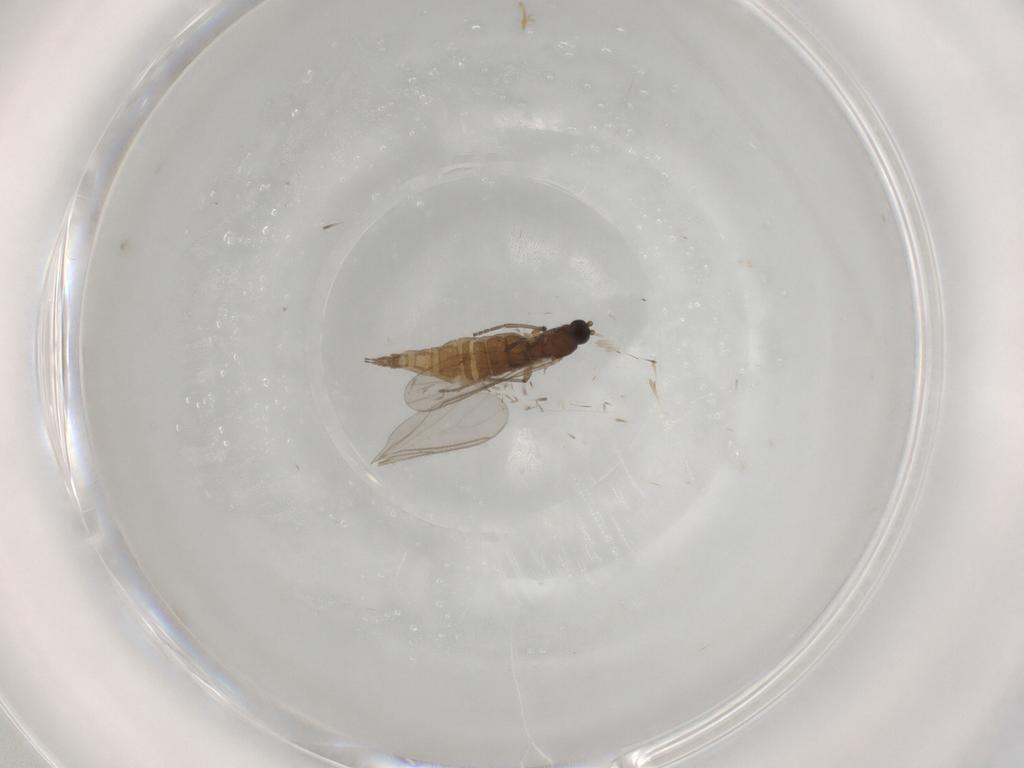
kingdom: Animalia
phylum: Arthropoda
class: Insecta
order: Diptera
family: Sciaridae
